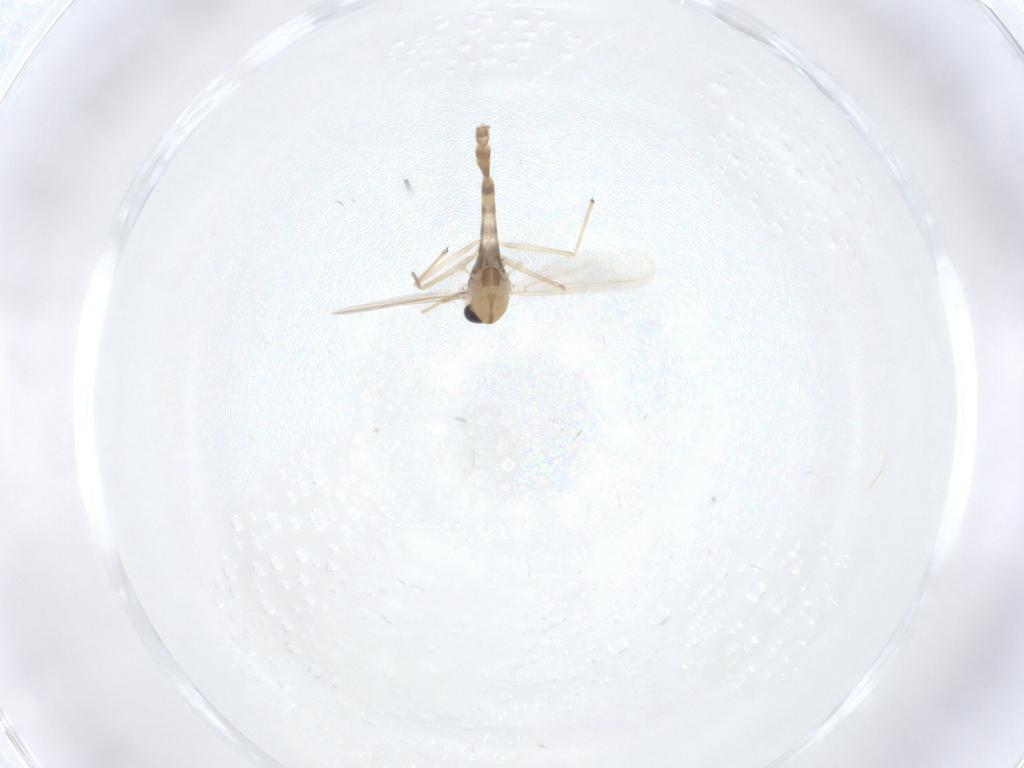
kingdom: Animalia
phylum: Arthropoda
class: Insecta
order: Diptera
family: Chironomidae
